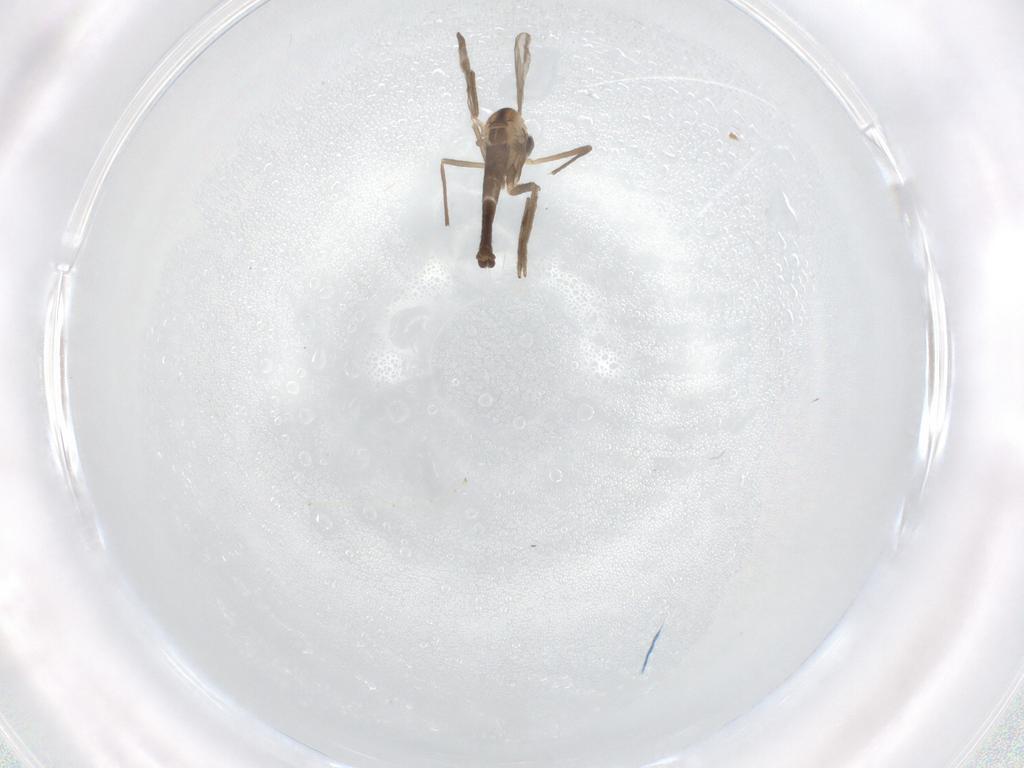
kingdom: Animalia
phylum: Arthropoda
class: Insecta
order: Diptera
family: Chironomidae
